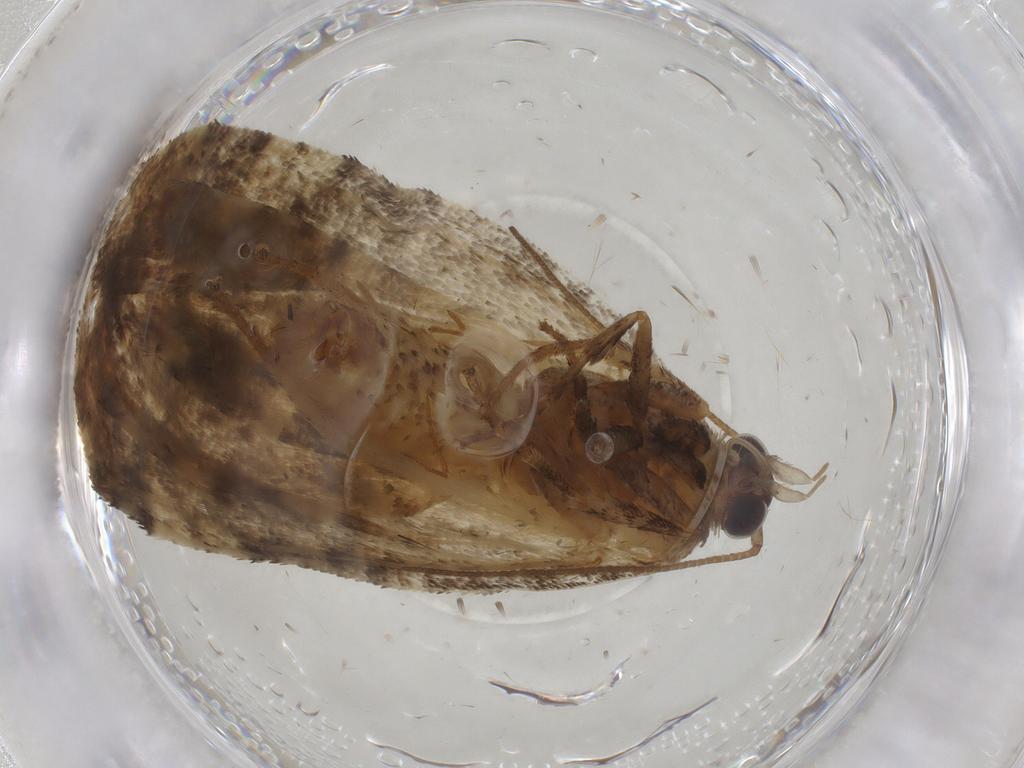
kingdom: Animalia
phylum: Arthropoda
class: Insecta
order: Lepidoptera
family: Tortricidae
